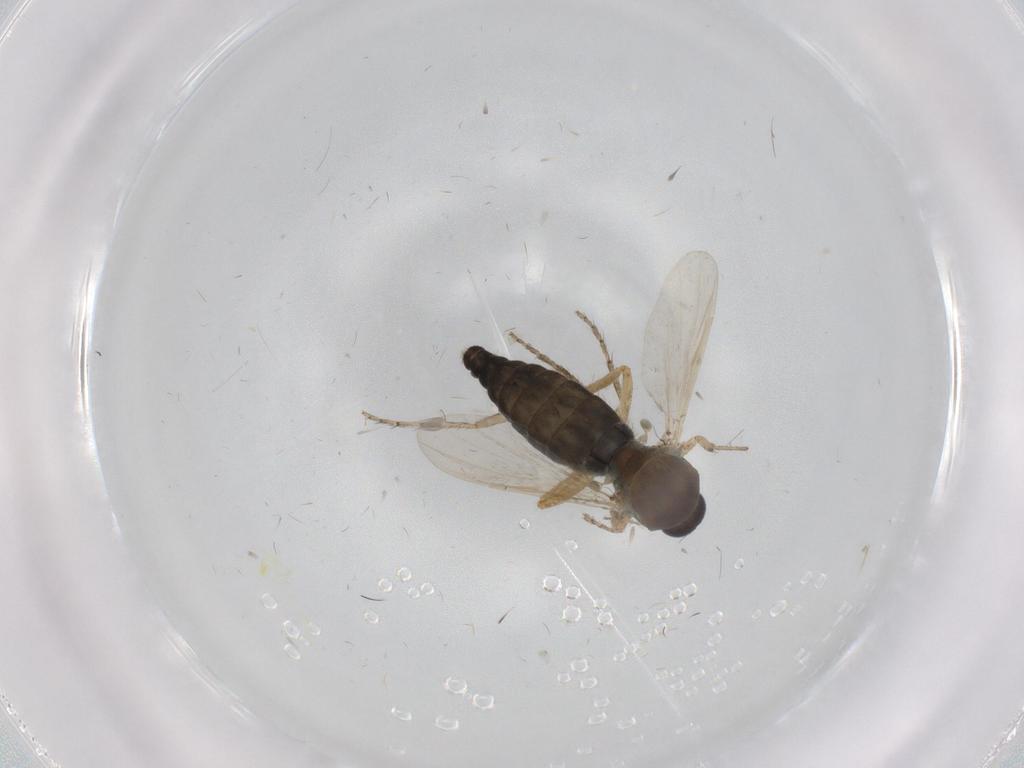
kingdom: Animalia
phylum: Arthropoda
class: Insecta
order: Diptera
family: Ceratopogonidae
